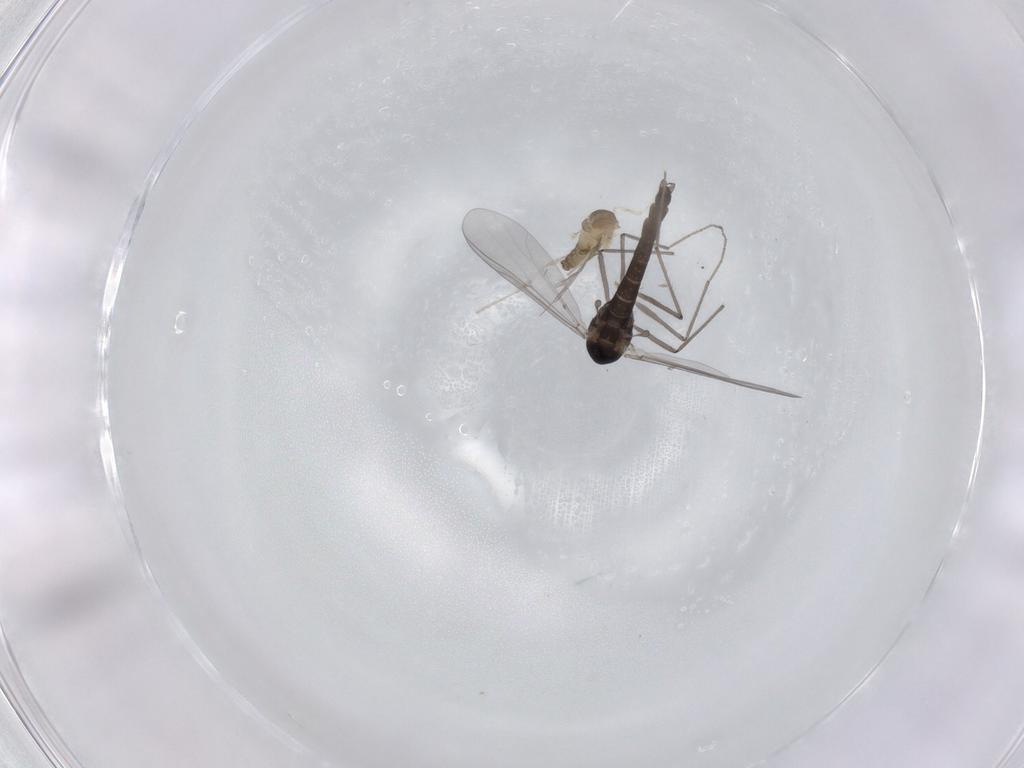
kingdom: Animalia
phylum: Arthropoda
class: Insecta
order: Diptera
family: Cecidomyiidae
